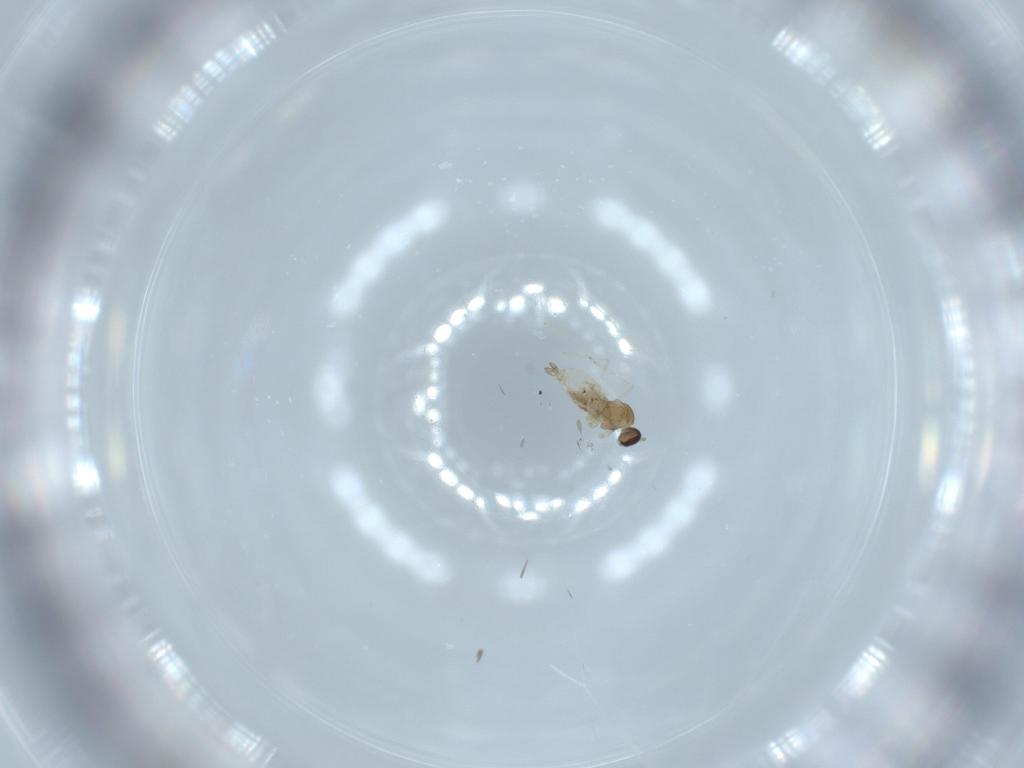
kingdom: Animalia
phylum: Arthropoda
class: Insecta
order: Diptera
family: Cecidomyiidae
